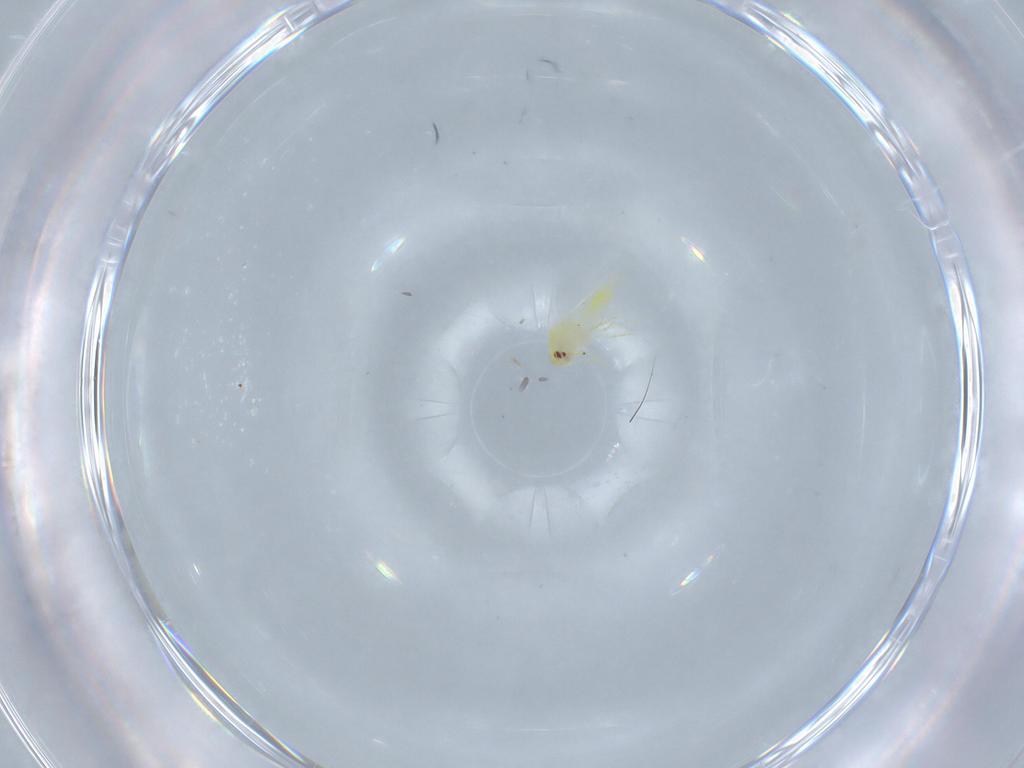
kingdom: Animalia
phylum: Arthropoda
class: Insecta
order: Hemiptera
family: Aleyrodidae
